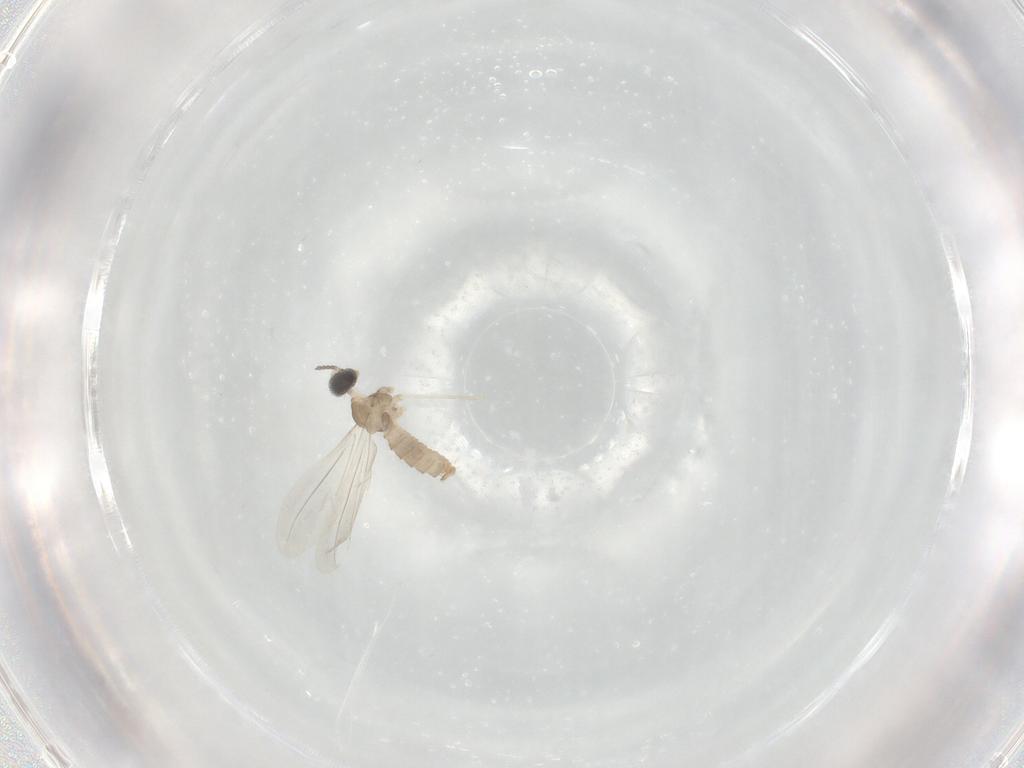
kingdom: Animalia
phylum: Arthropoda
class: Insecta
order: Diptera
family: Cecidomyiidae
